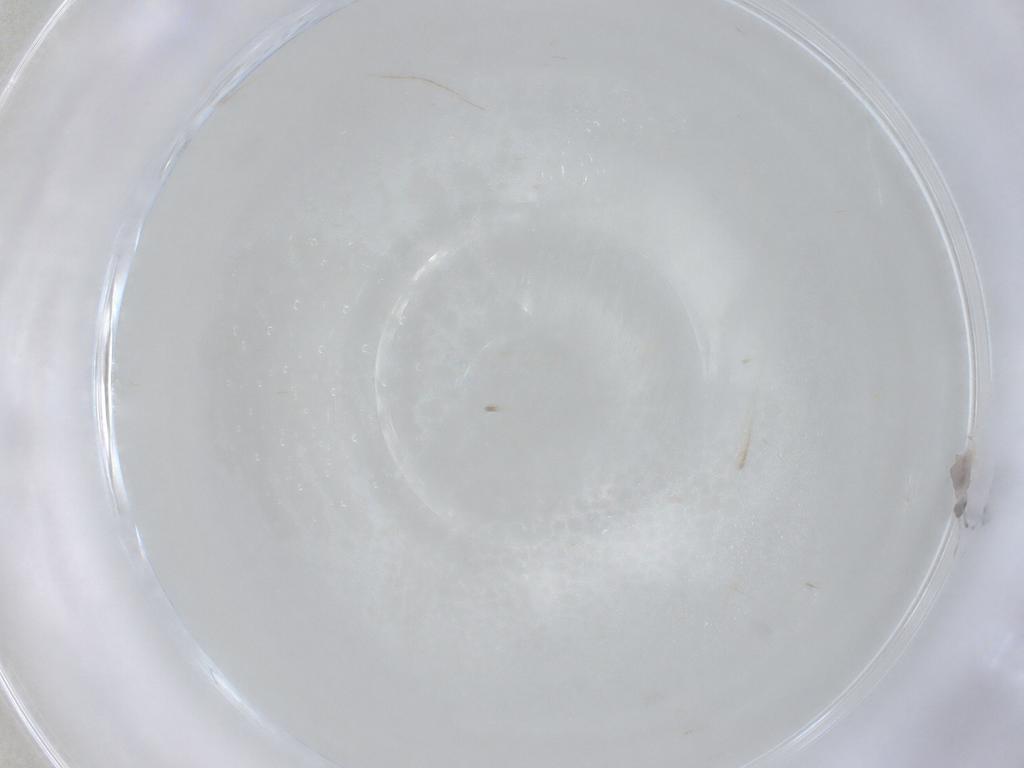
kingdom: Animalia
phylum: Arthropoda
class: Collembola
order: Poduromorpha
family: Hypogastruridae
